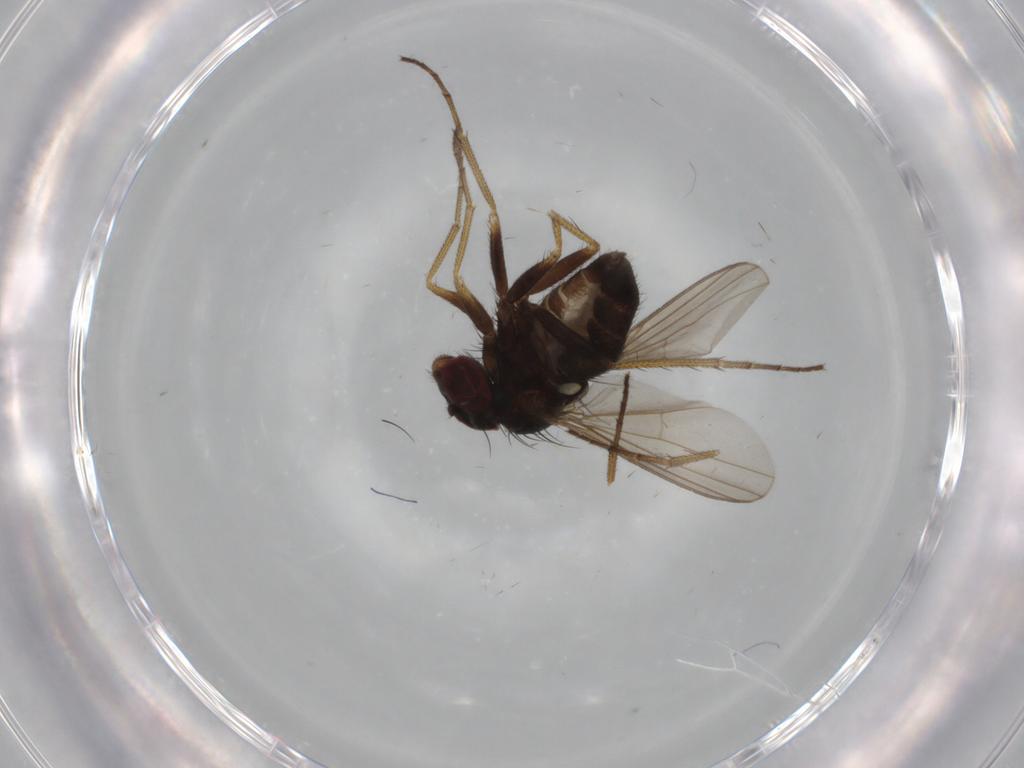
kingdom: Animalia
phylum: Arthropoda
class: Insecta
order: Diptera
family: Dolichopodidae
